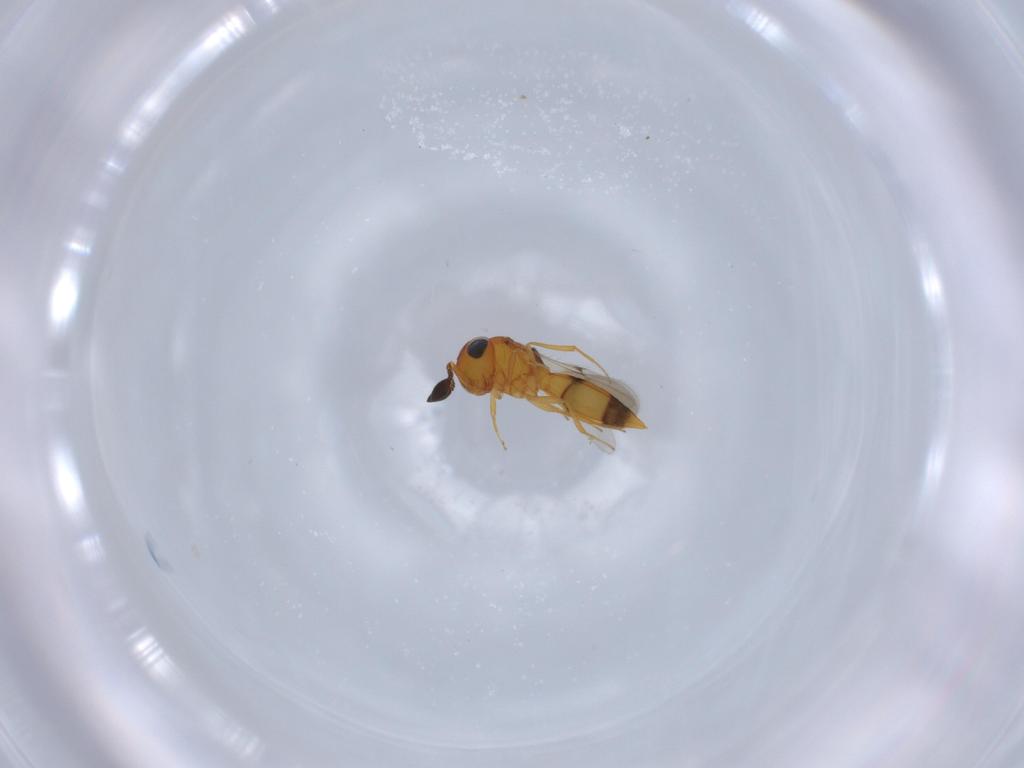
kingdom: Animalia
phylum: Arthropoda
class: Insecta
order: Hymenoptera
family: Scelionidae
